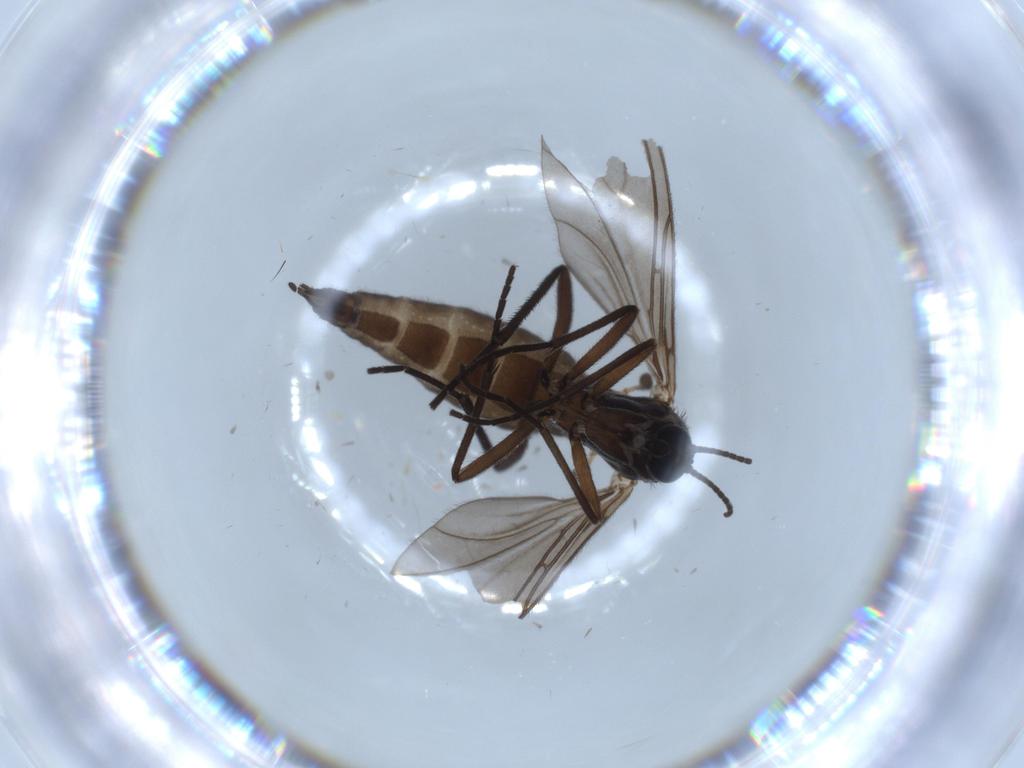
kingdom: Animalia
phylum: Arthropoda
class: Insecta
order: Diptera
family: Sciaridae
